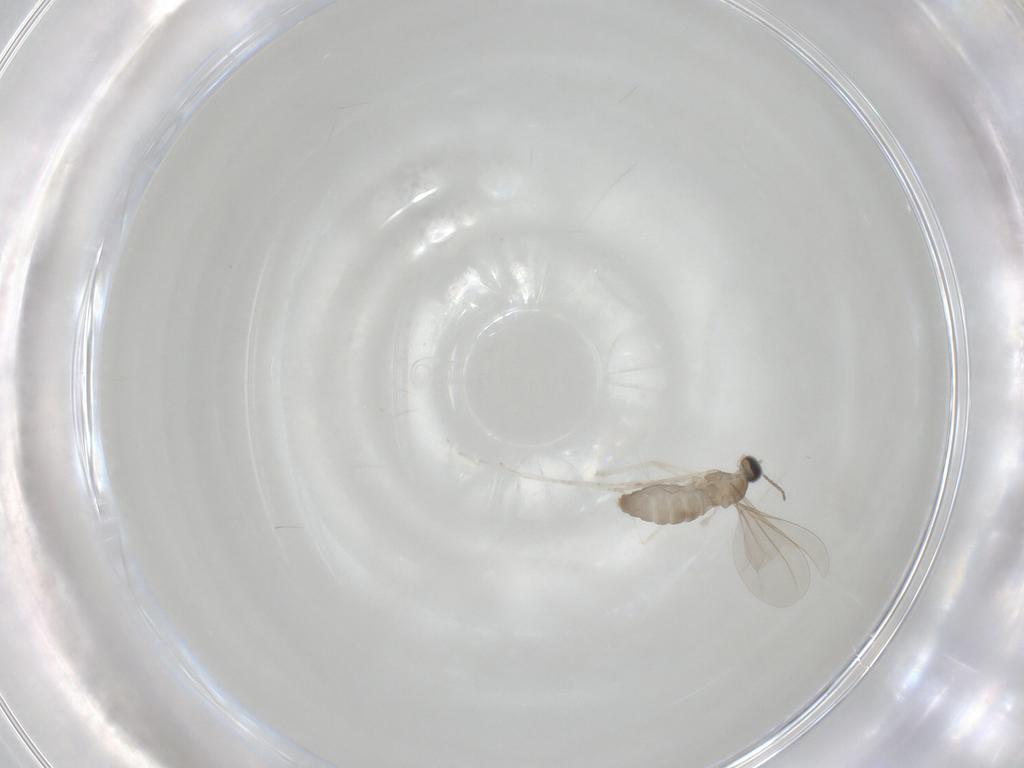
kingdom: Animalia
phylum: Arthropoda
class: Insecta
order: Diptera
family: Cecidomyiidae
